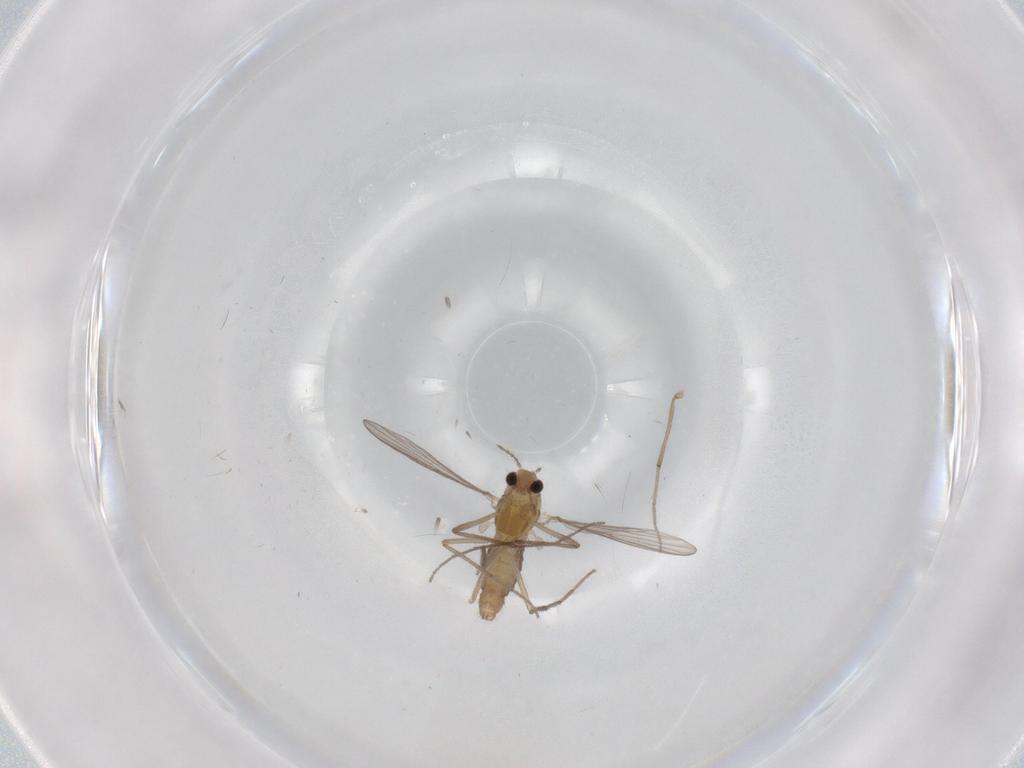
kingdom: Animalia
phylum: Arthropoda
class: Insecta
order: Diptera
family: Chironomidae
